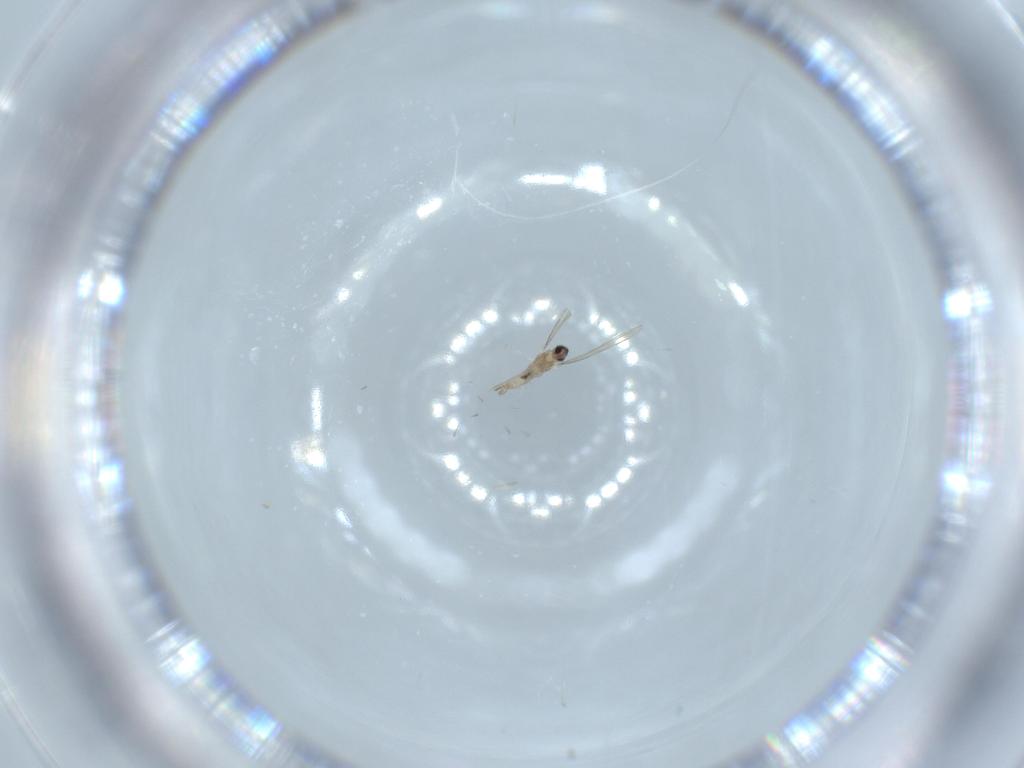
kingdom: Animalia
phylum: Arthropoda
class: Insecta
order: Diptera
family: Cecidomyiidae
